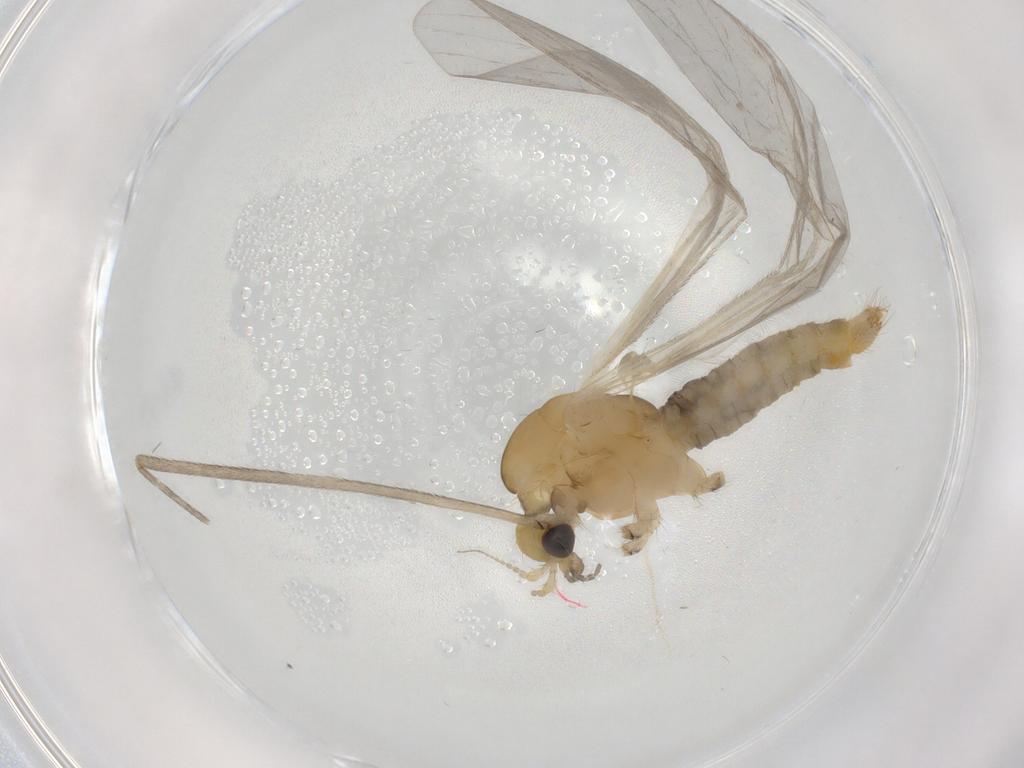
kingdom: Animalia
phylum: Arthropoda
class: Insecta
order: Diptera
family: Limoniidae
